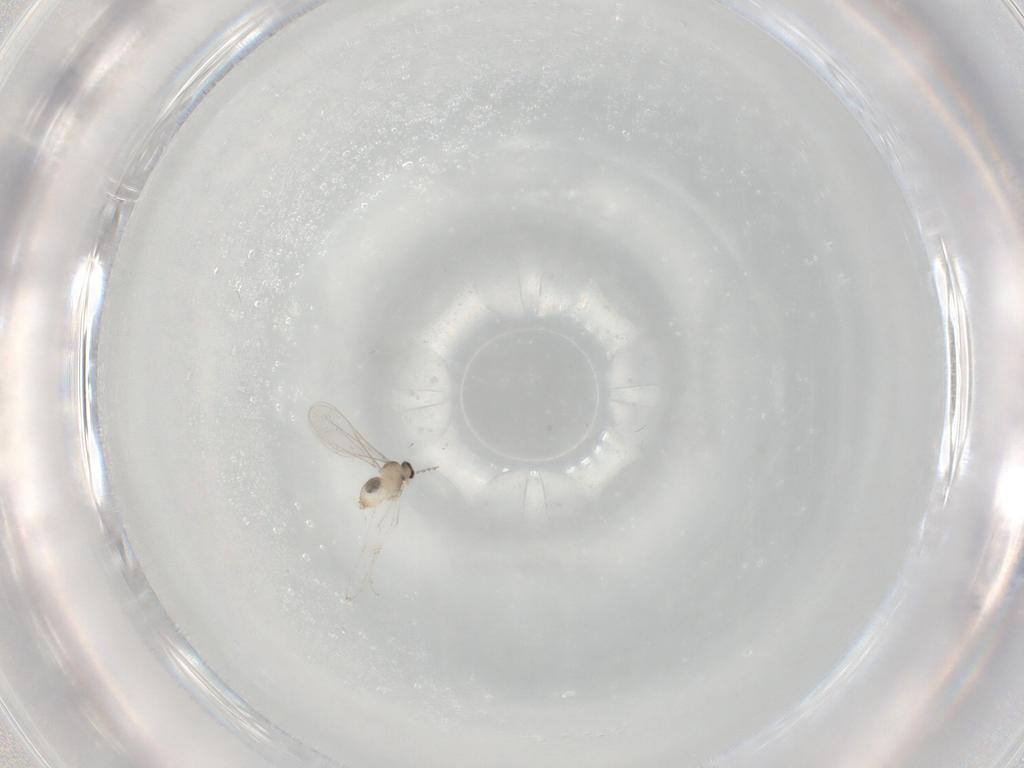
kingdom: Animalia
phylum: Arthropoda
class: Insecta
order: Diptera
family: Cecidomyiidae
